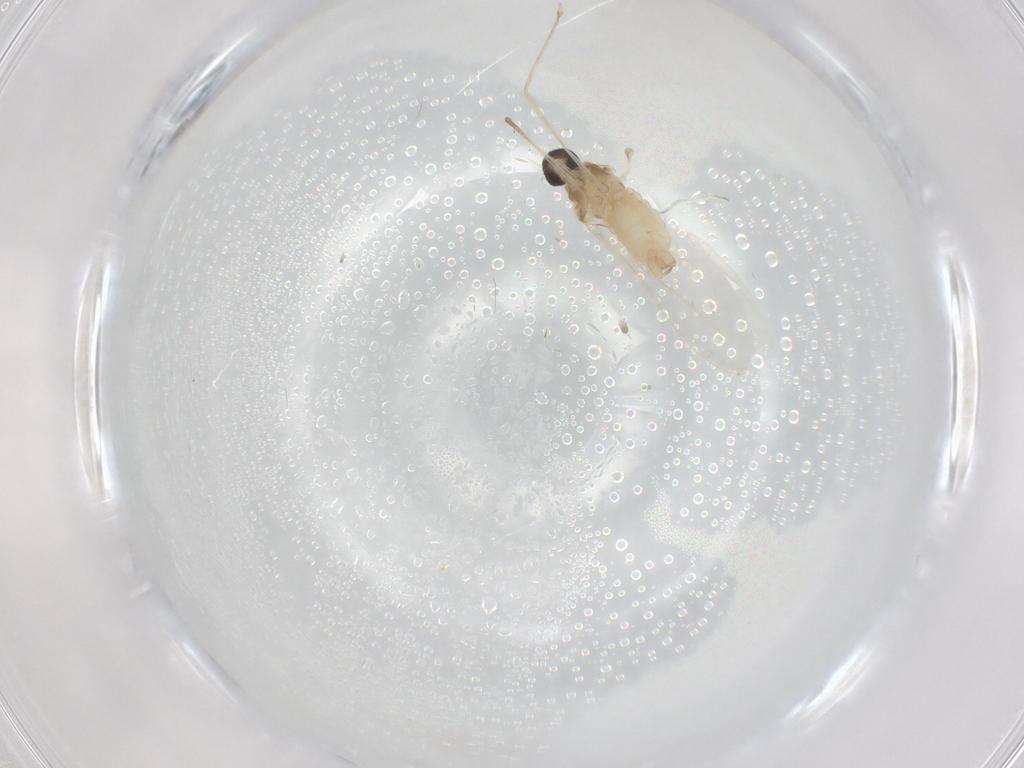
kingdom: Animalia
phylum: Arthropoda
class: Insecta
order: Diptera
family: Cecidomyiidae
